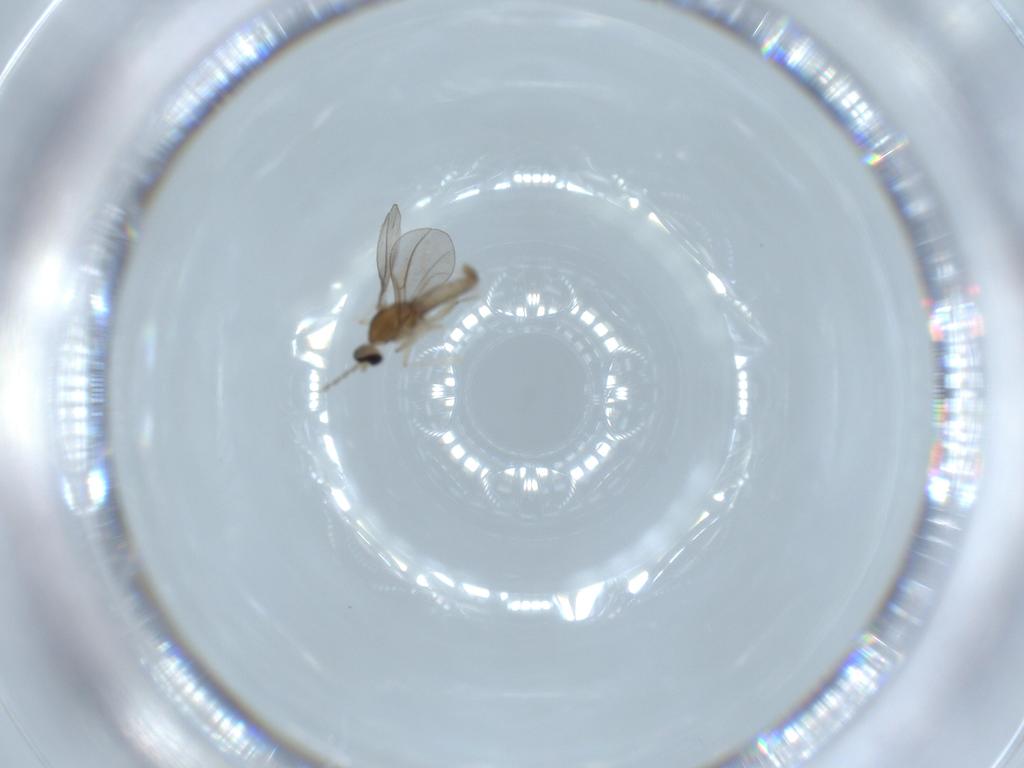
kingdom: Animalia
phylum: Arthropoda
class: Insecta
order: Diptera
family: Cecidomyiidae
